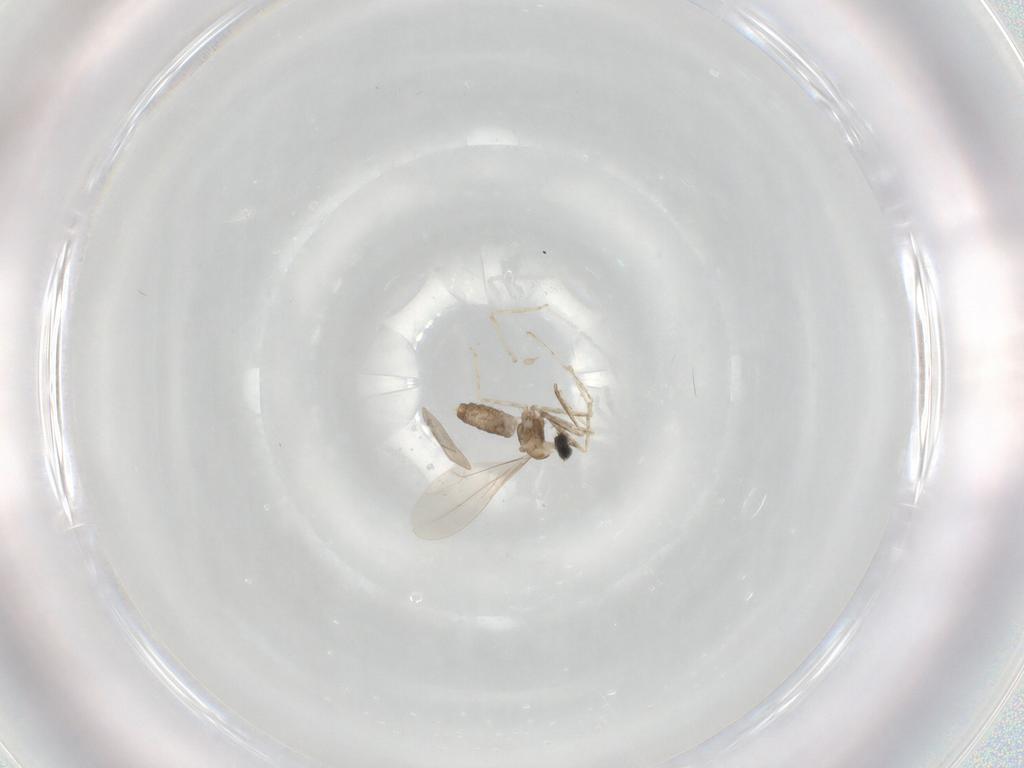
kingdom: Animalia
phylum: Arthropoda
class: Insecta
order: Diptera
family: Cecidomyiidae
